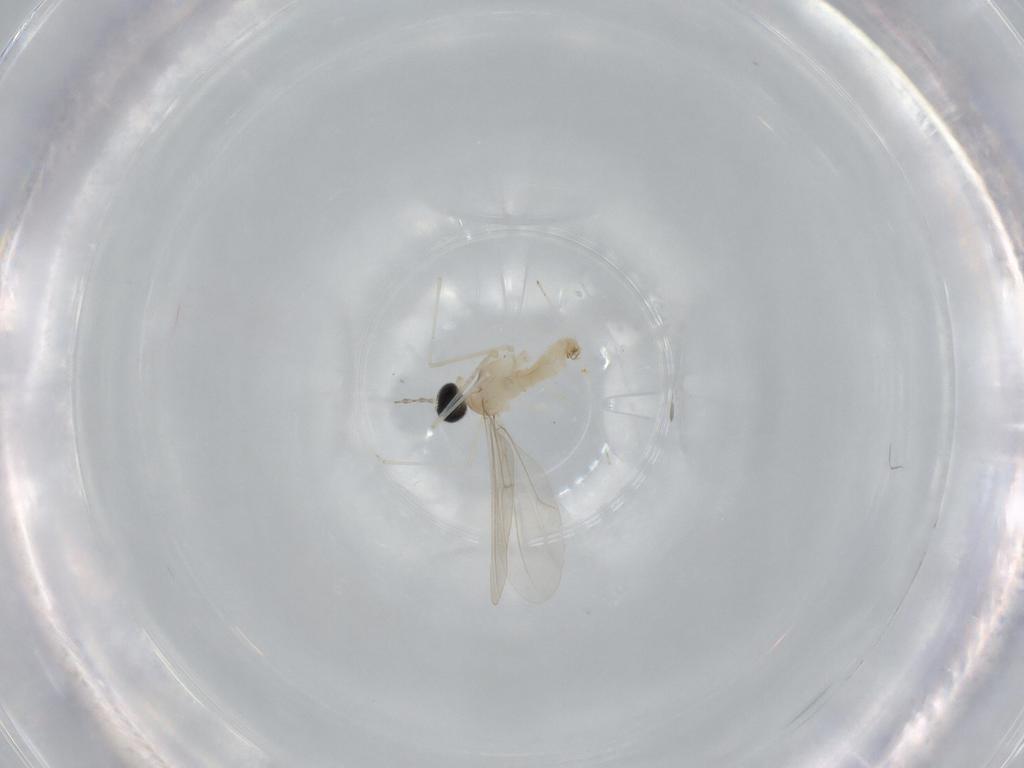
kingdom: Animalia
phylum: Arthropoda
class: Insecta
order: Diptera
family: Cecidomyiidae
